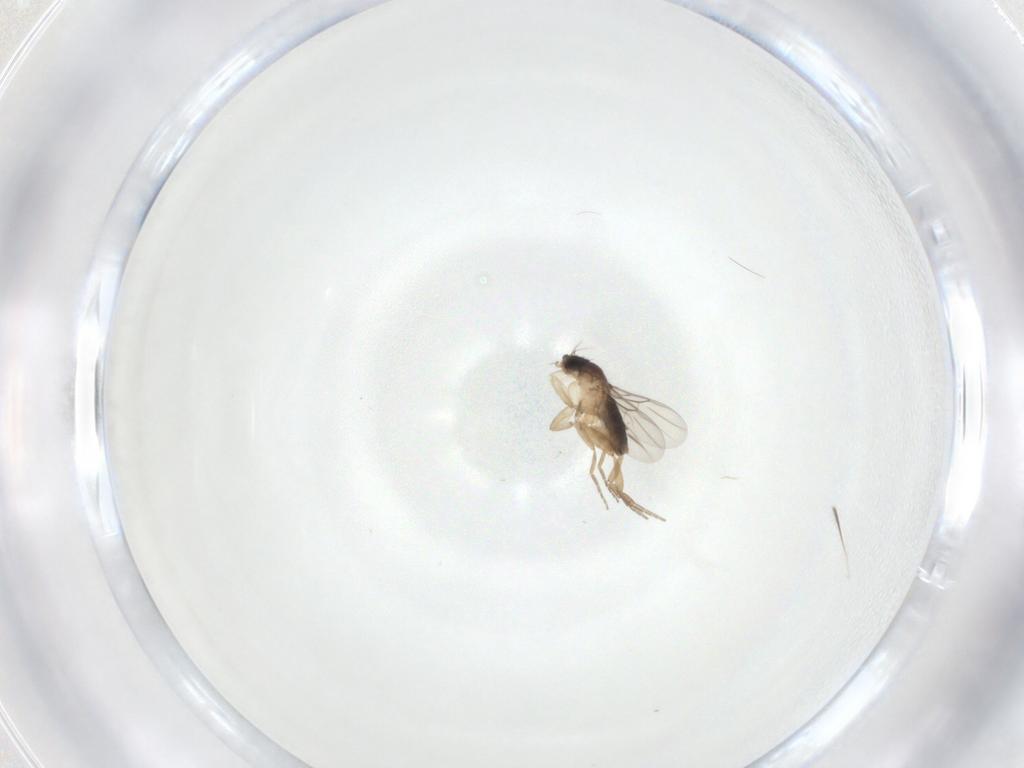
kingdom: Animalia
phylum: Arthropoda
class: Insecta
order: Diptera
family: Phoridae
